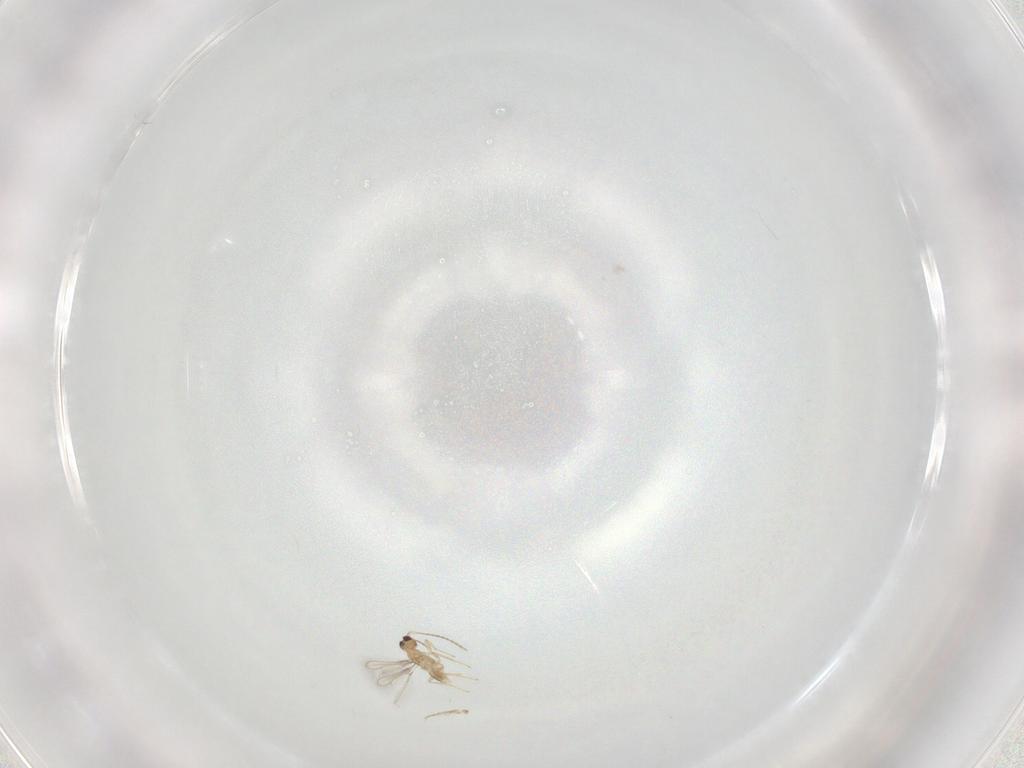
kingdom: Animalia
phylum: Arthropoda
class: Insecta
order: Hymenoptera
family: Mymaridae
